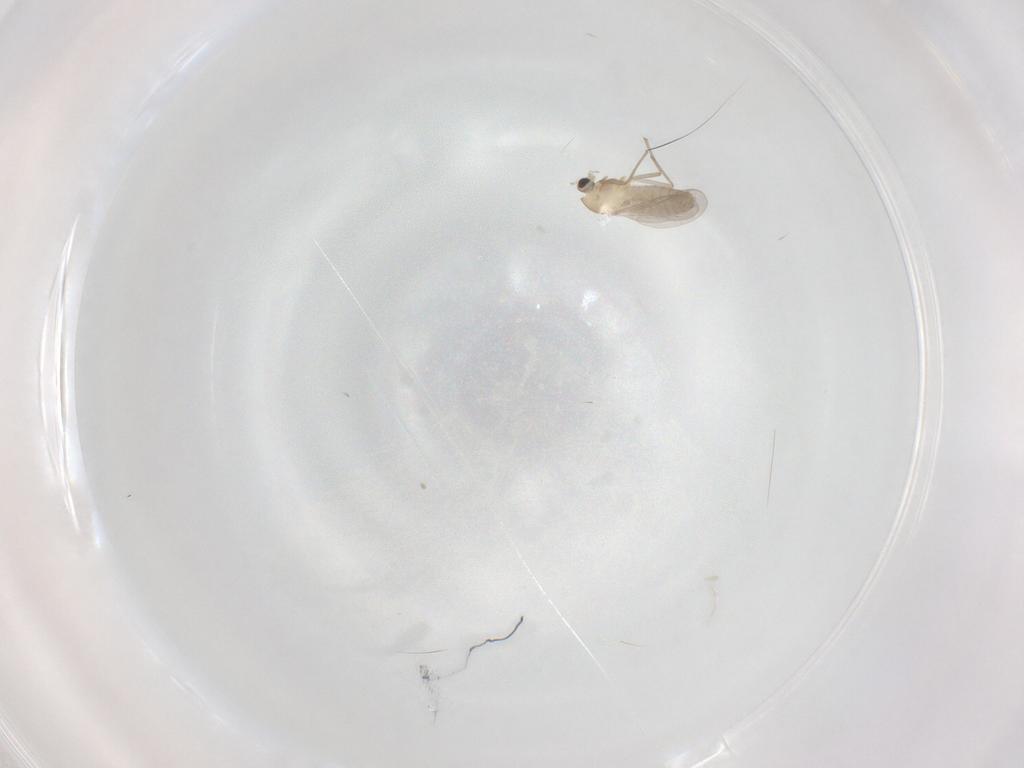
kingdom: Animalia
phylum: Arthropoda
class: Insecta
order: Diptera
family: Chironomidae
